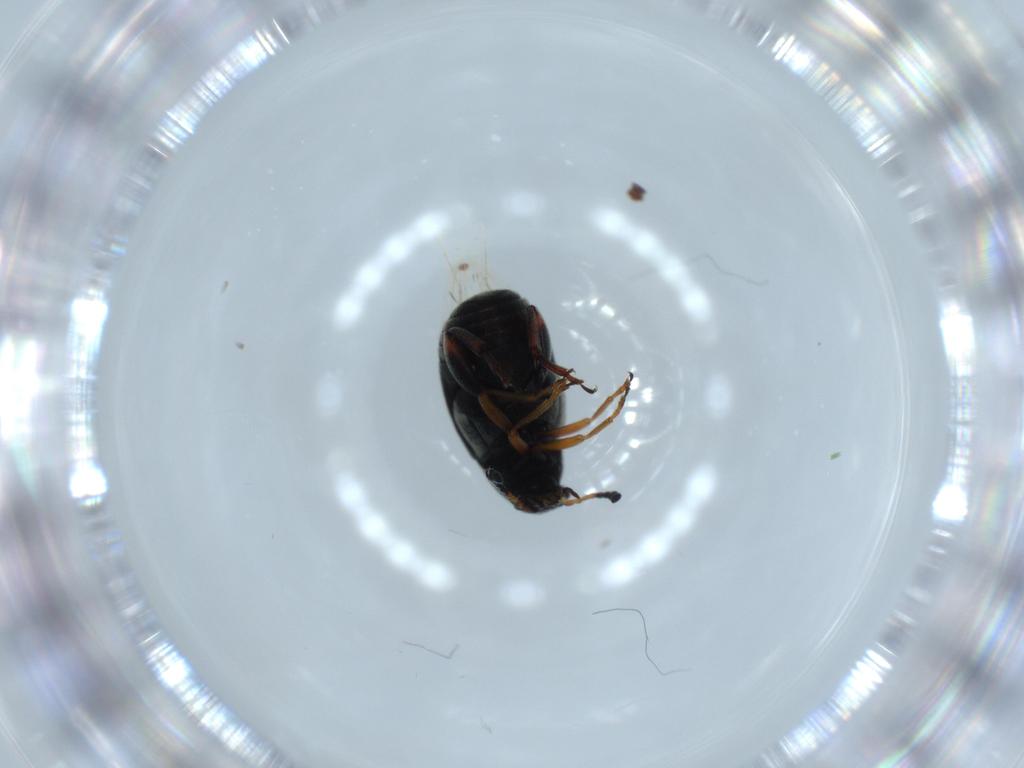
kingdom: Animalia
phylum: Arthropoda
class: Insecta
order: Coleoptera
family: Chrysomelidae
